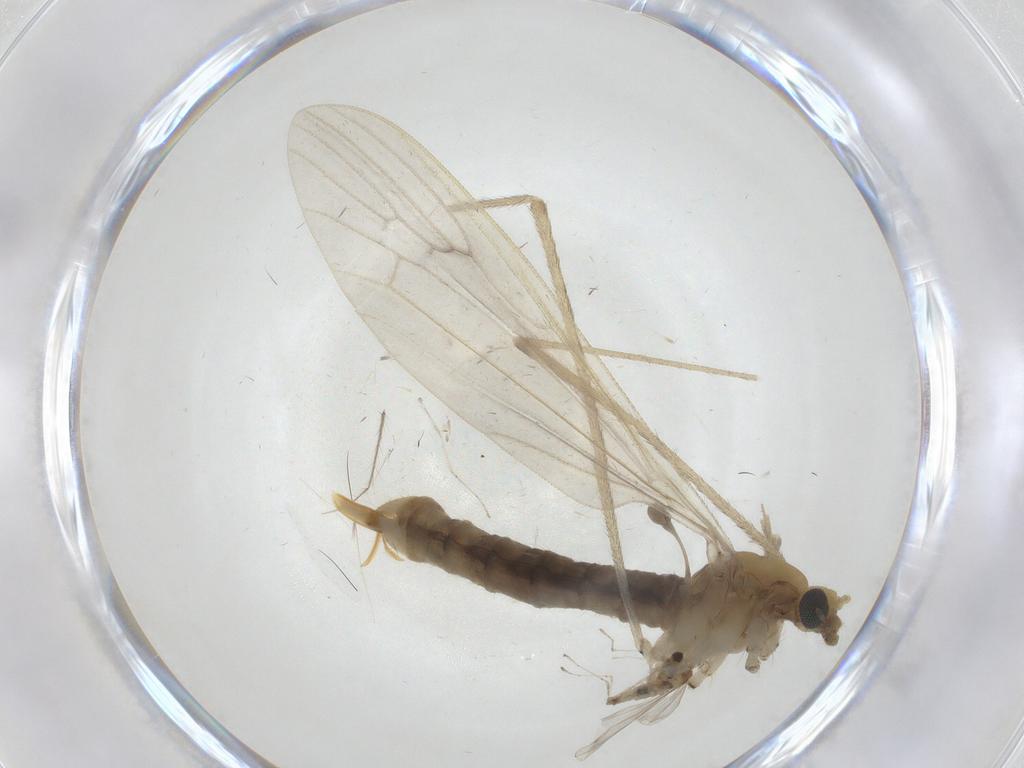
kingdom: Animalia
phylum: Arthropoda
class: Insecta
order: Diptera
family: Limoniidae
